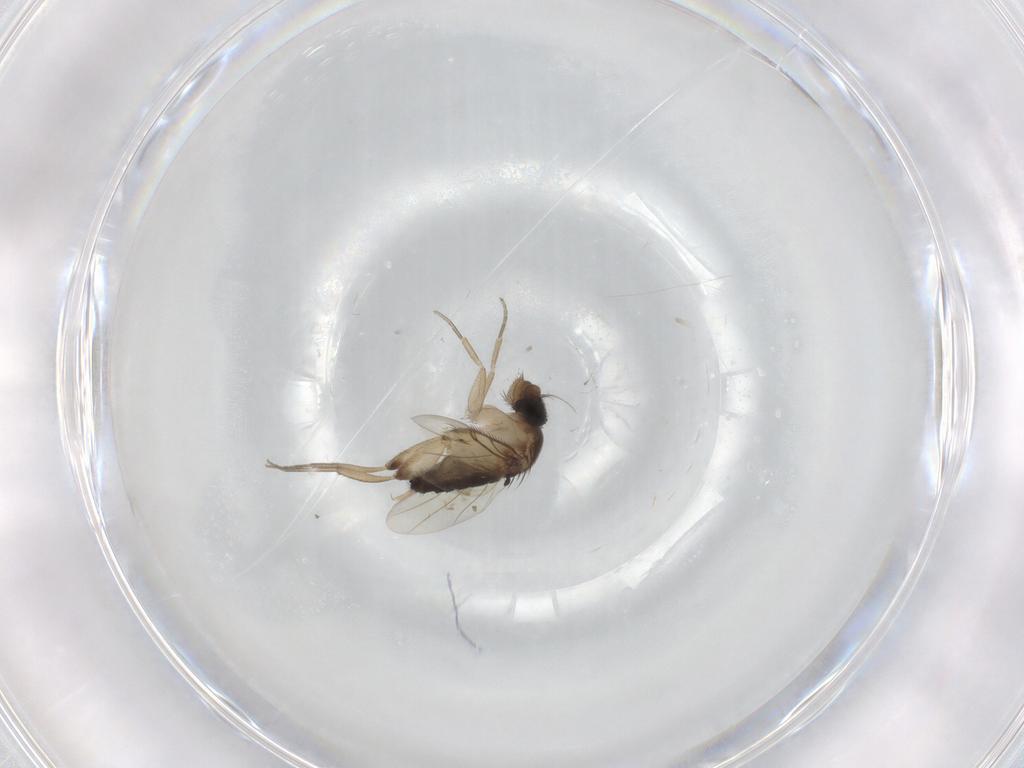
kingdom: Animalia
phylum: Arthropoda
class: Insecta
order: Diptera
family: Phoridae
